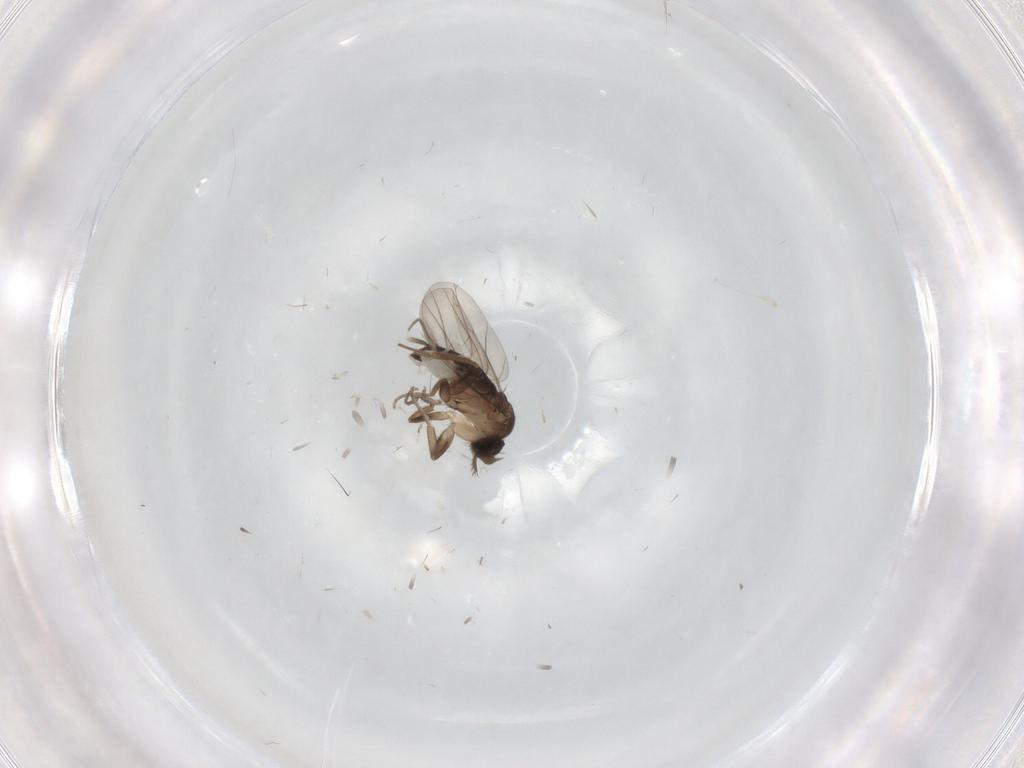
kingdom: Animalia
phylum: Arthropoda
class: Insecta
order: Diptera
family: Phoridae
